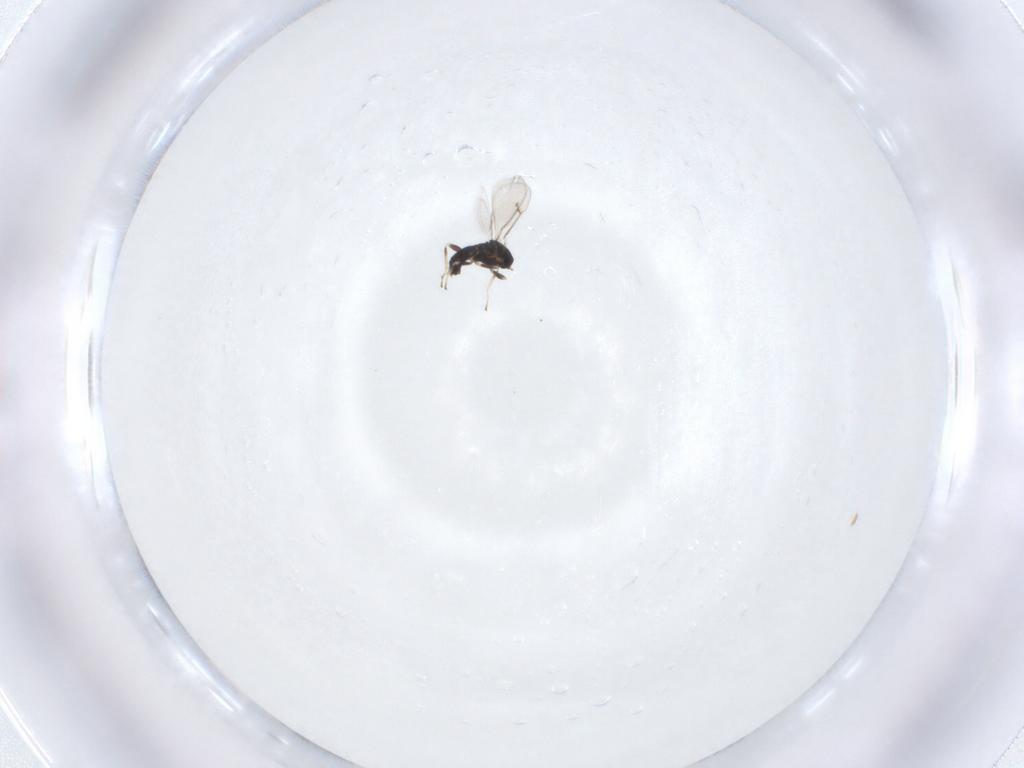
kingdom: Animalia
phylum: Arthropoda
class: Insecta
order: Hymenoptera
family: Eulophidae
